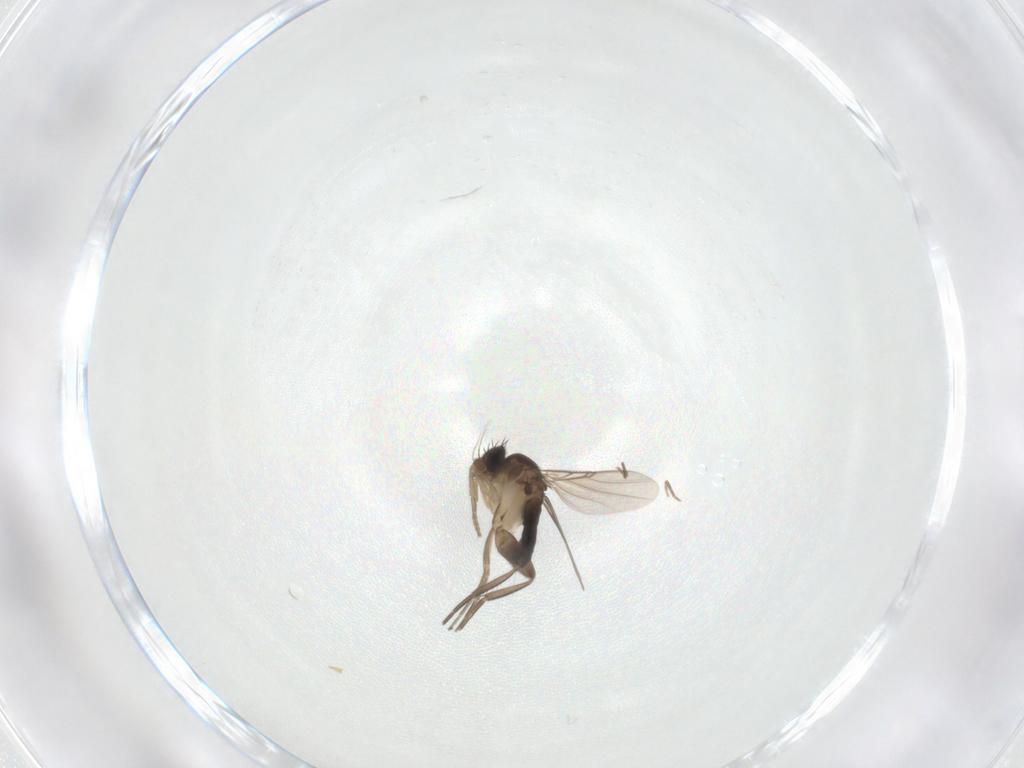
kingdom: Animalia
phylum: Arthropoda
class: Insecta
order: Diptera
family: Phoridae
